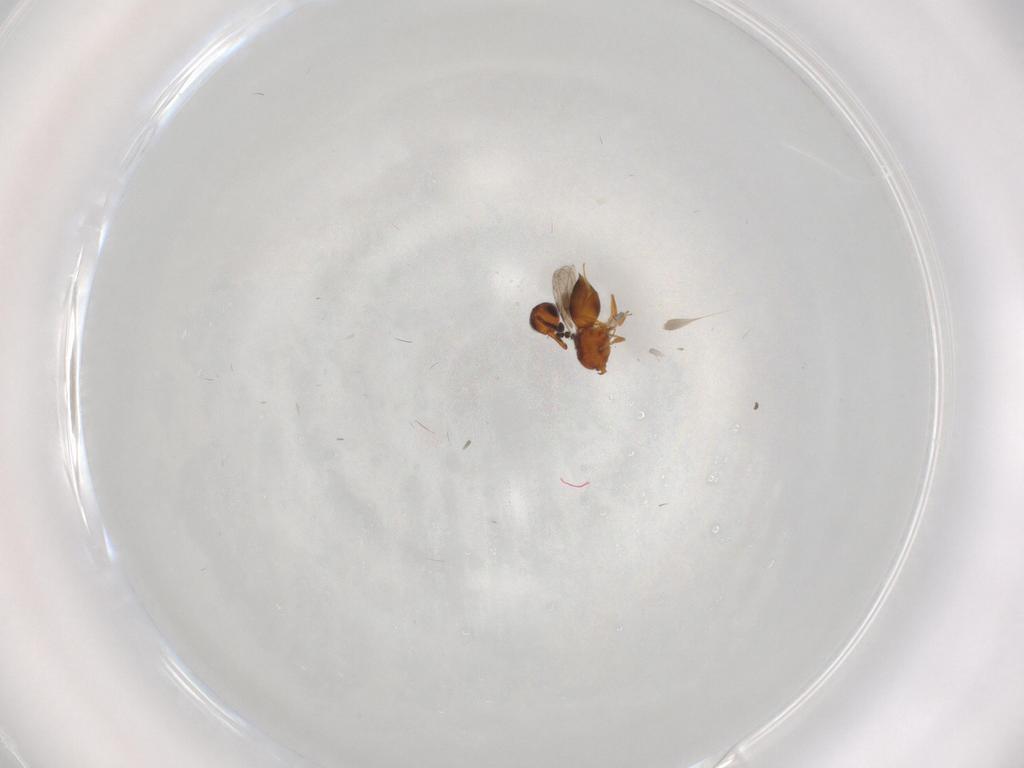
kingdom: Animalia
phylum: Arthropoda
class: Insecta
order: Hymenoptera
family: Ceraphronidae
